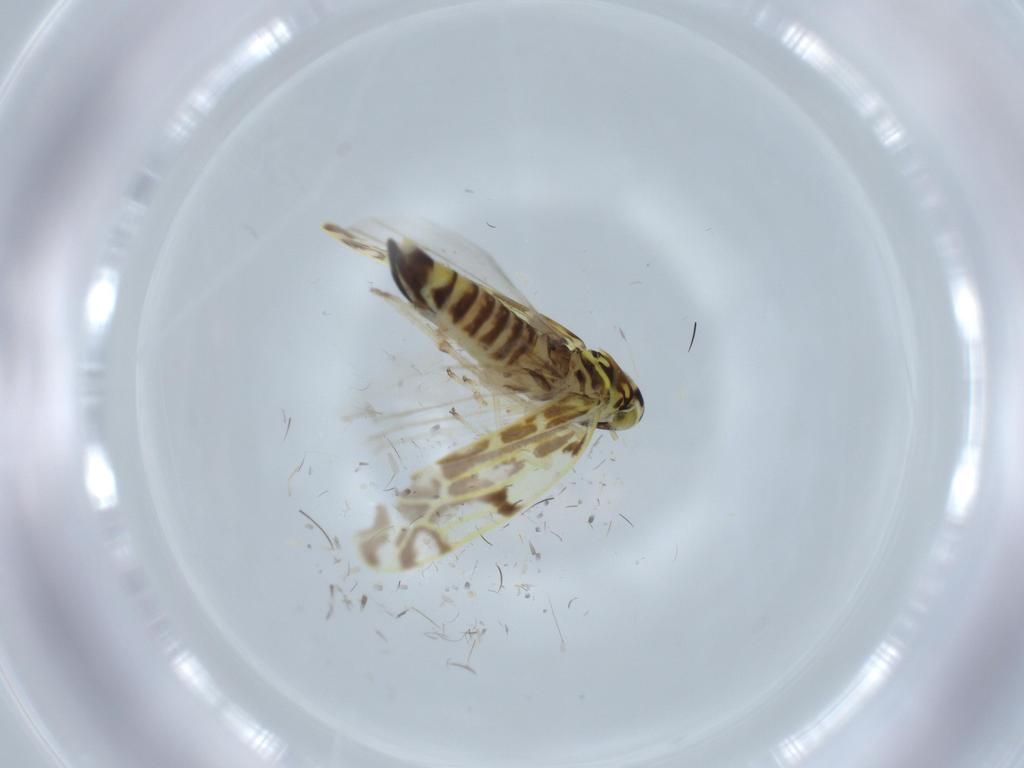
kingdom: Animalia
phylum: Arthropoda
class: Insecta
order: Hemiptera
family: Cicadellidae
